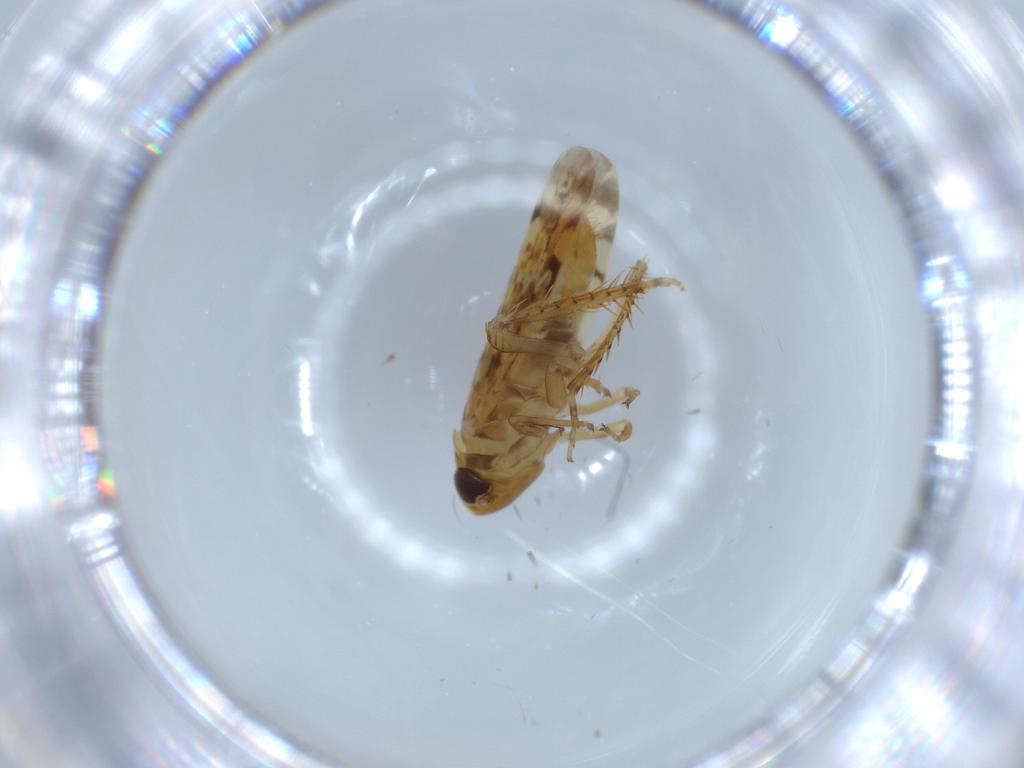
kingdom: Animalia
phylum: Arthropoda
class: Insecta
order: Hemiptera
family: Cicadellidae
